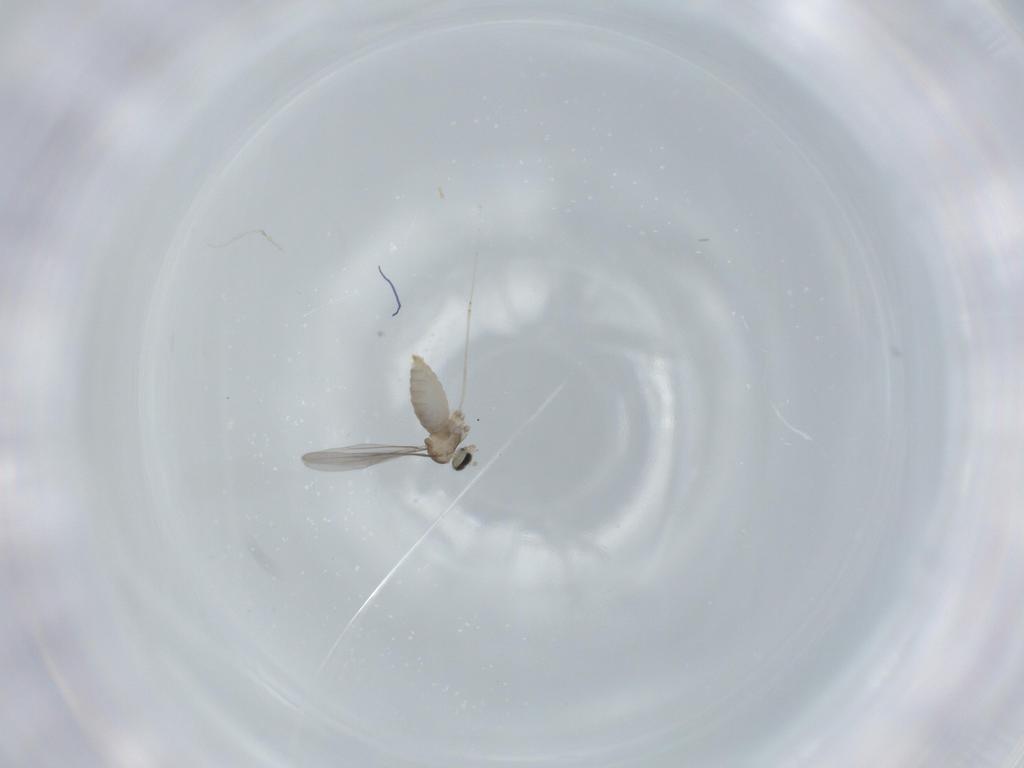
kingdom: Animalia
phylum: Arthropoda
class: Insecta
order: Diptera
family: Cecidomyiidae
